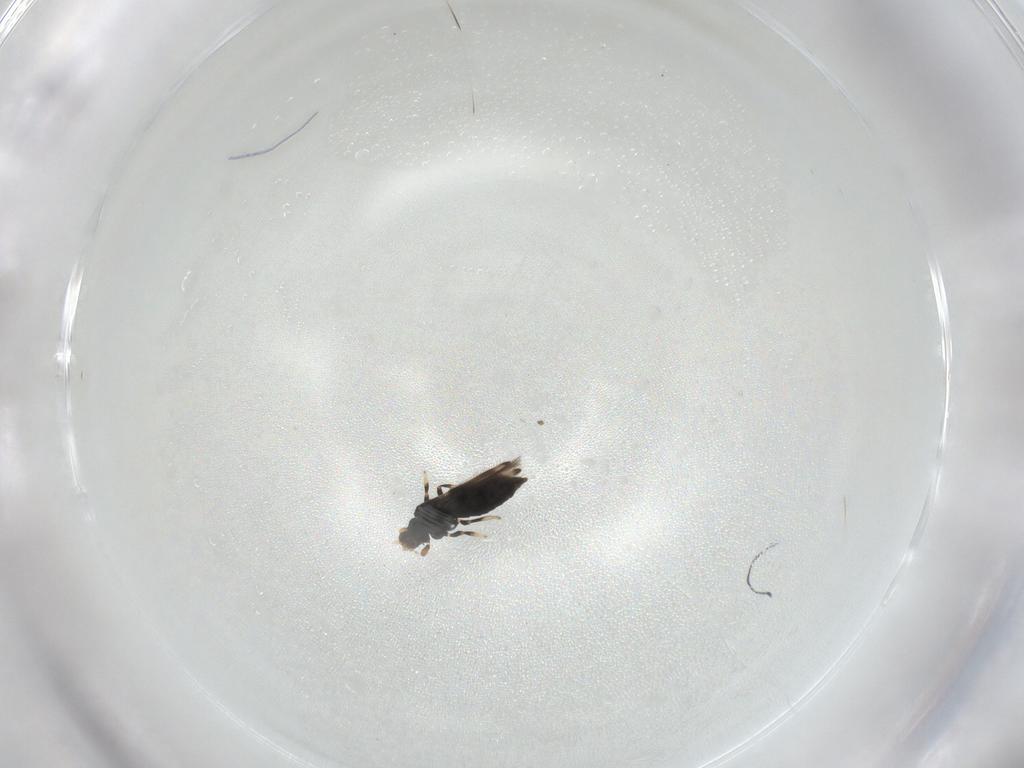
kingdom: Animalia
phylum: Arthropoda
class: Insecta
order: Thysanoptera
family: Thripidae
